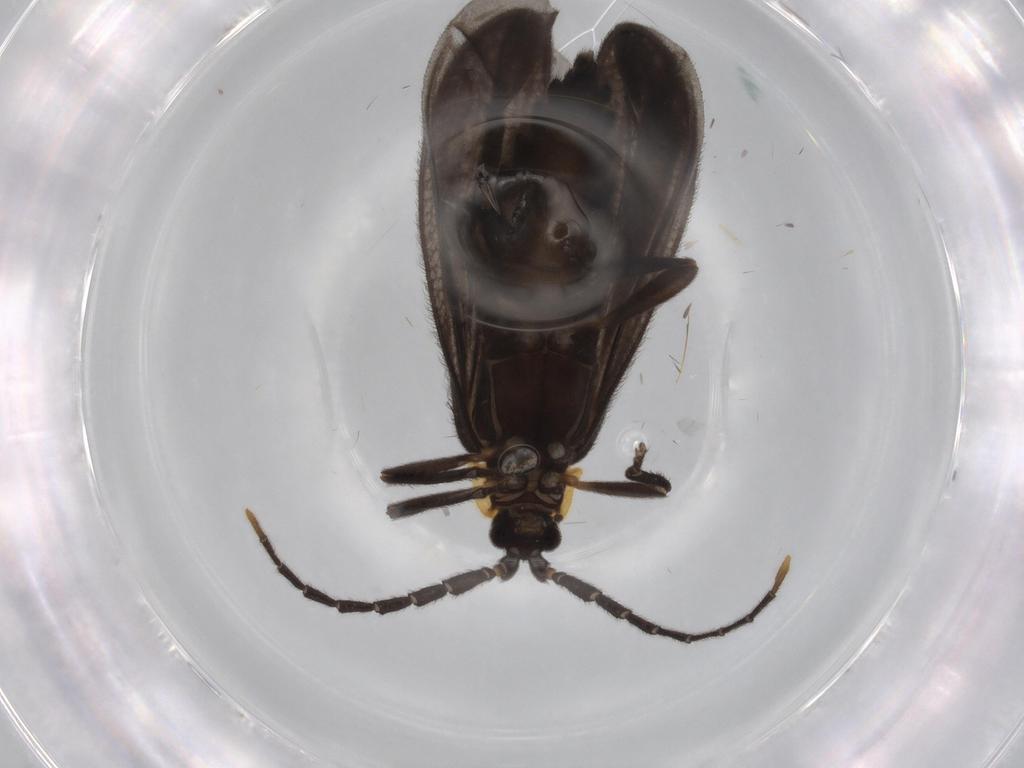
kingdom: Animalia
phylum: Arthropoda
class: Insecta
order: Coleoptera
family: Lycidae
